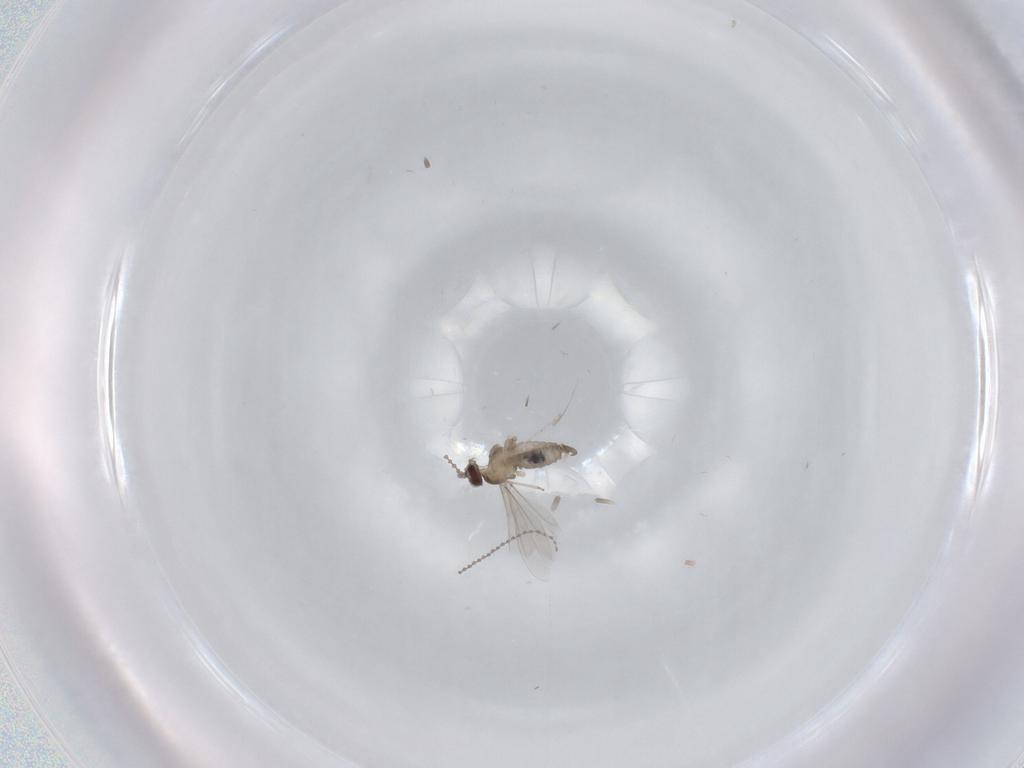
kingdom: Animalia
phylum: Arthropoda
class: Insecta
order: Diptera
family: Cecidomyiidae
